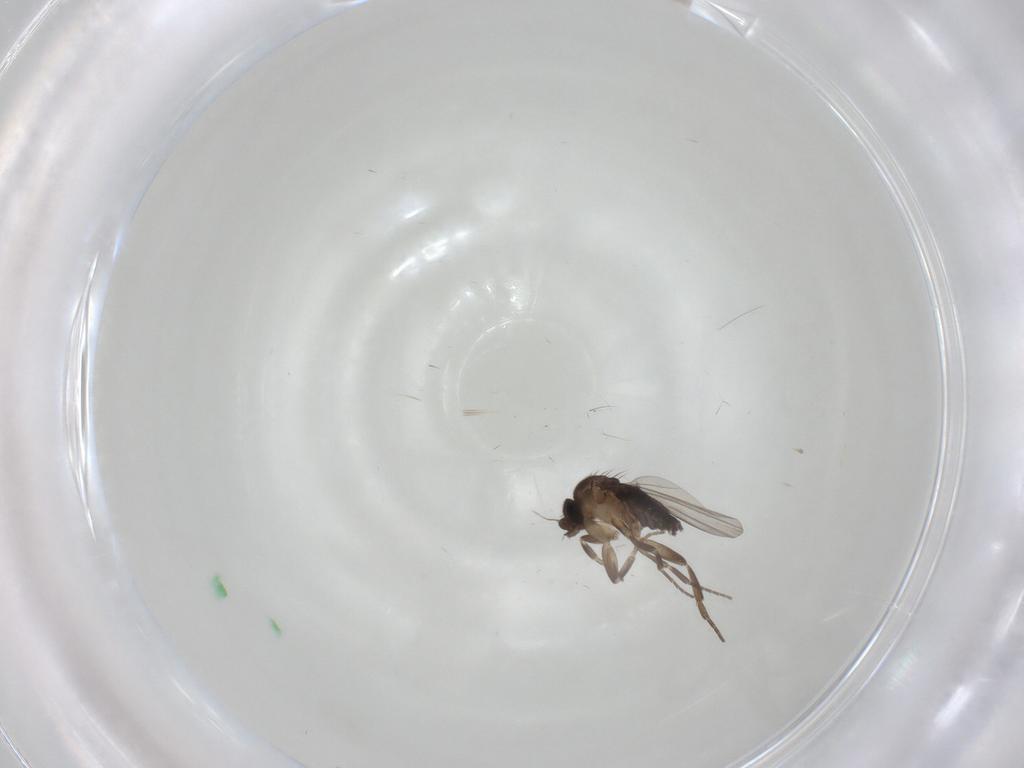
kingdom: Animalia
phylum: Arthropoda
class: Insecta
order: Diptera
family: Phoridae
